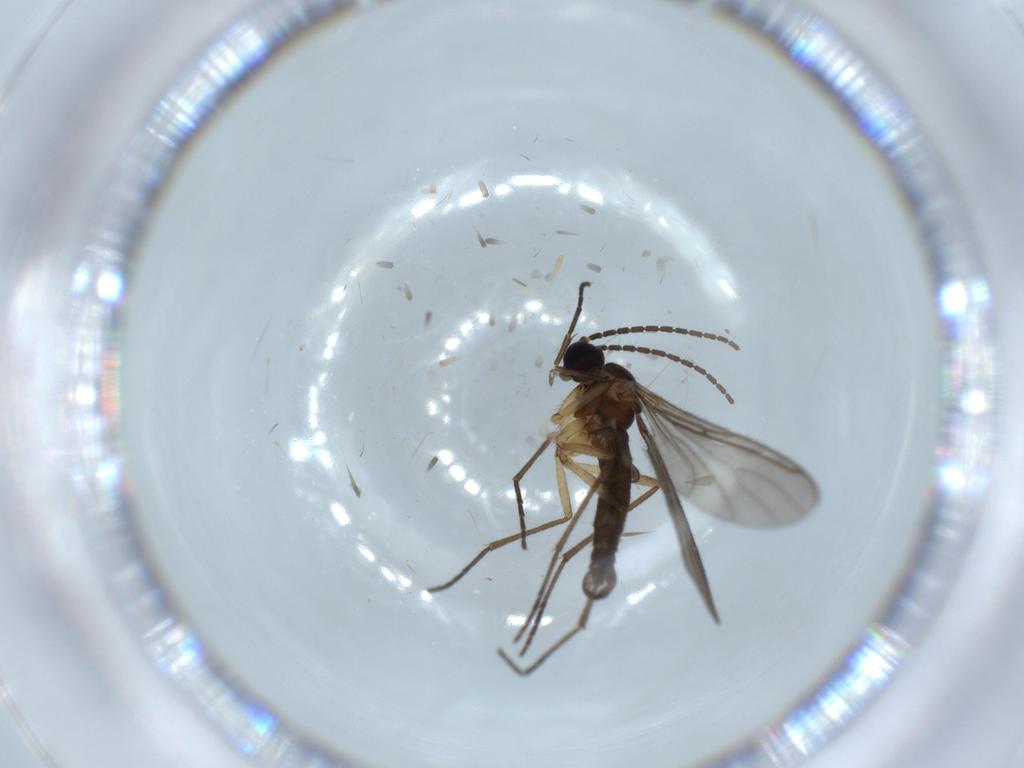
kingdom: Animalia
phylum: Arthropoda
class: Insecta
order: Diptera
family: Sciaridae
